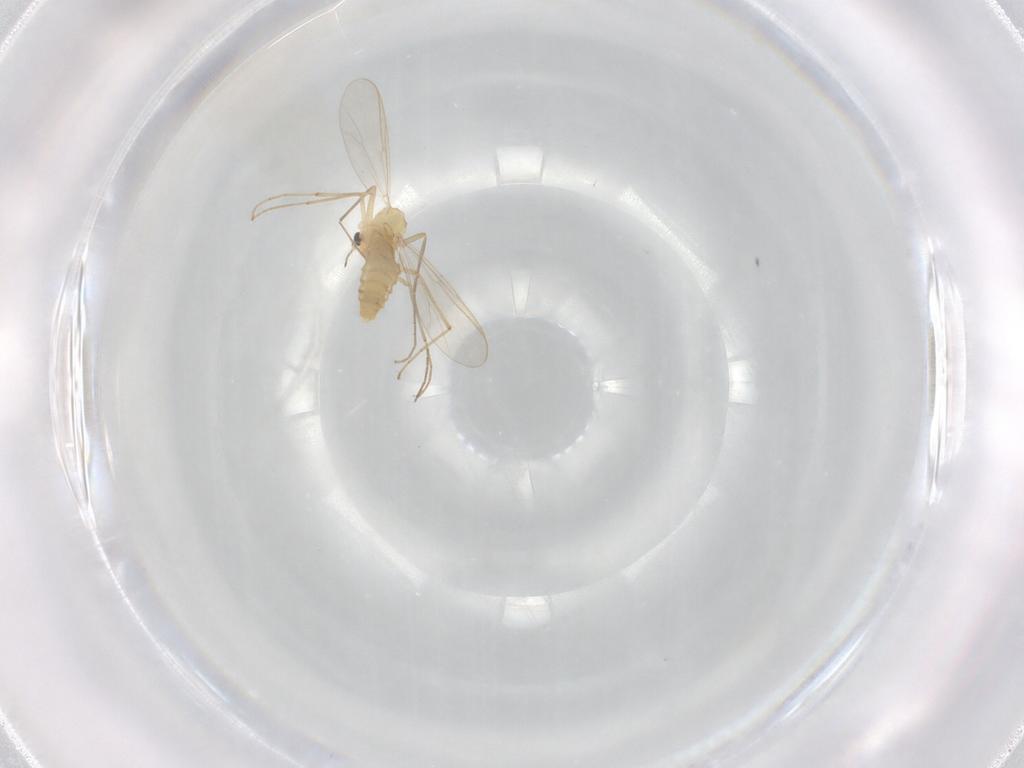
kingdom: Animalia
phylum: Arthropoda
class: Insecta
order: Diptera
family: Chironomidae
